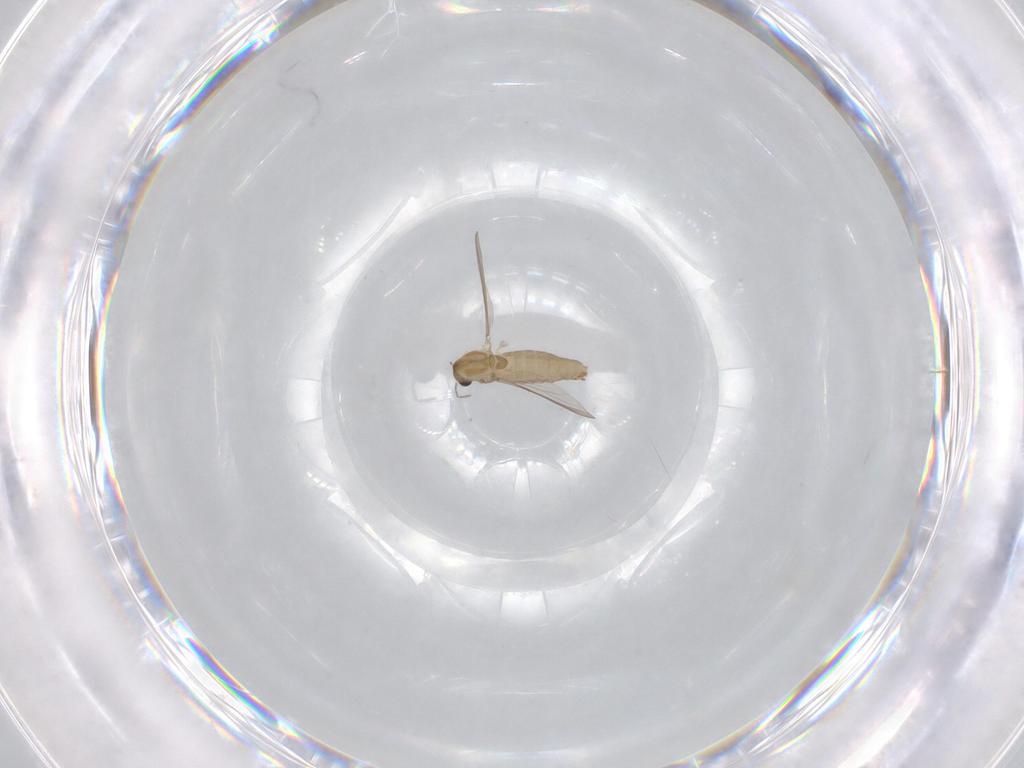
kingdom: Animalia
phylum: Arthropoda
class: Insecta
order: Diptera
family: Chironomidae
